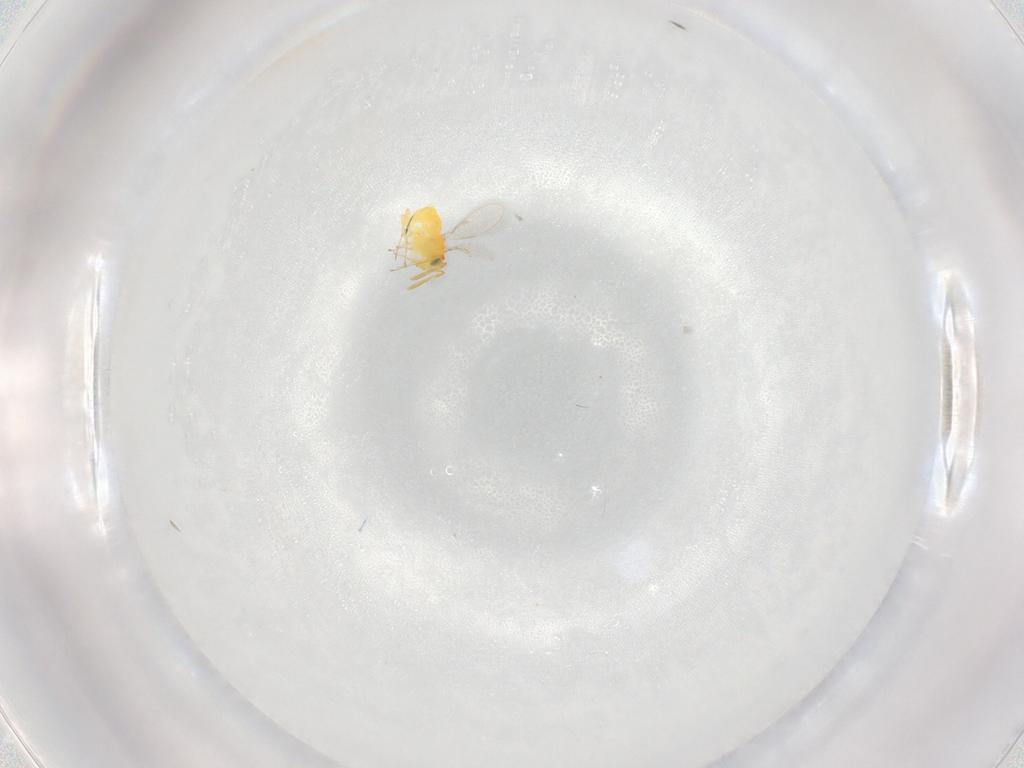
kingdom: Animalia
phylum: Arthropoda
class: Insecta
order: Hymenoptera
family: Aphelinidae
